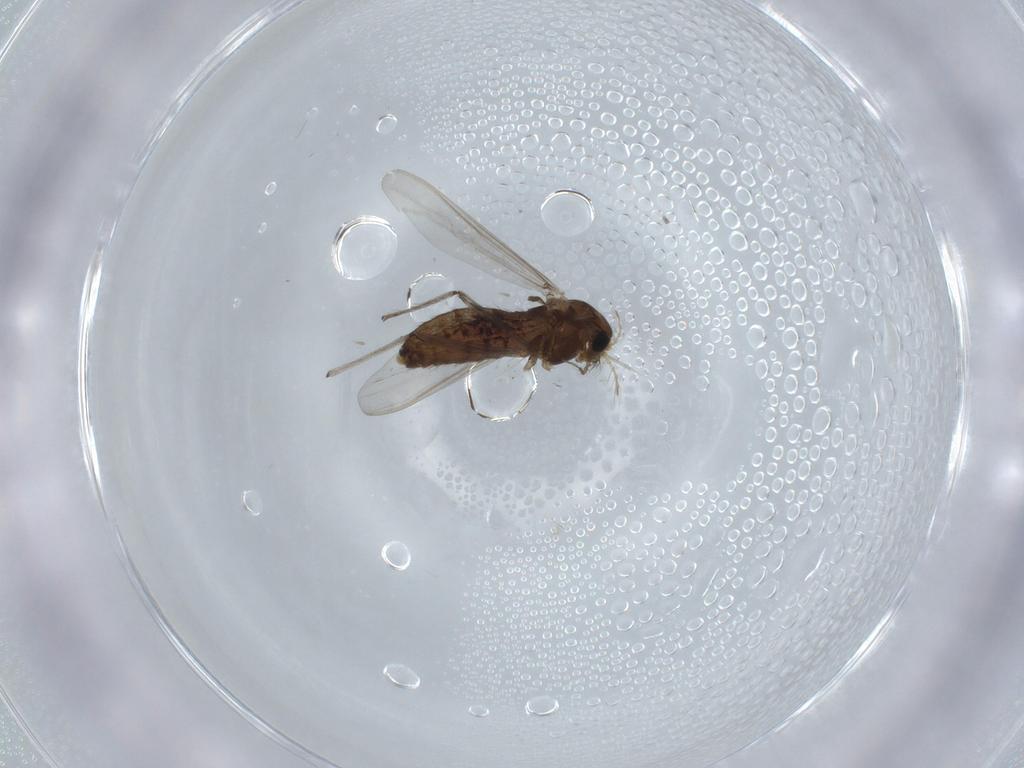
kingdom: Animalia
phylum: Arthropoda
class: Insecta
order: Diptera
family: Chironomidae
